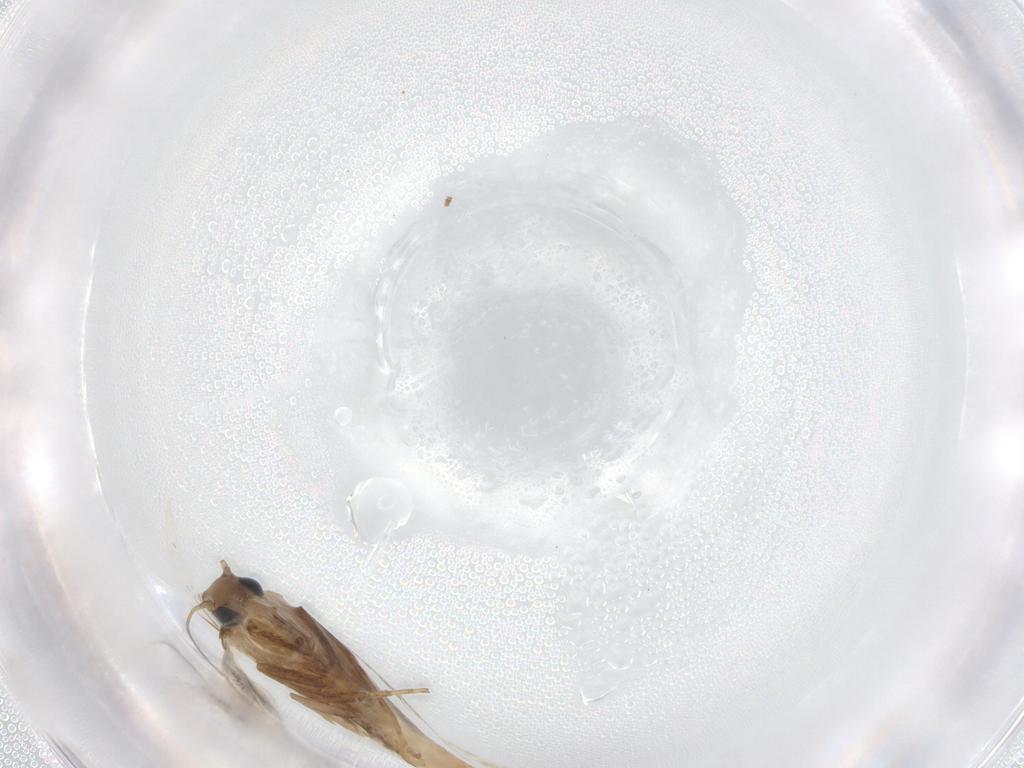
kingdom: Animalia
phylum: Arthropoda
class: Insecta
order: Lepidoptera
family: Tischeriidae
